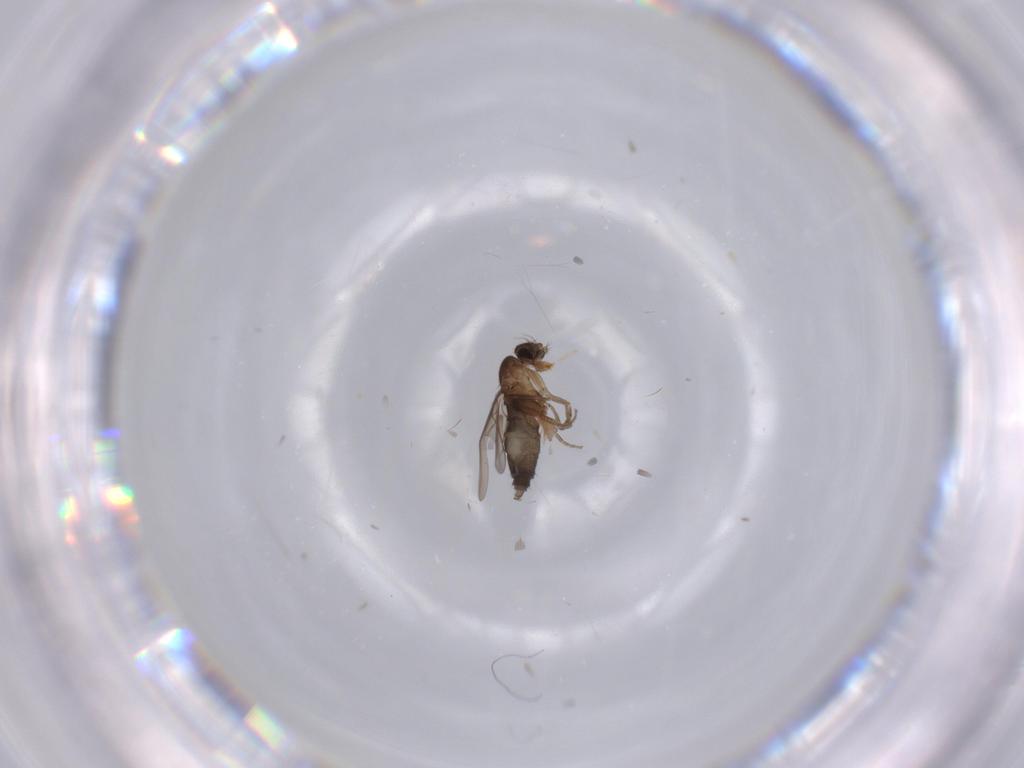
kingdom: Animalia
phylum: Arthropoda
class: Insecta
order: Diptera
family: Phoridae
